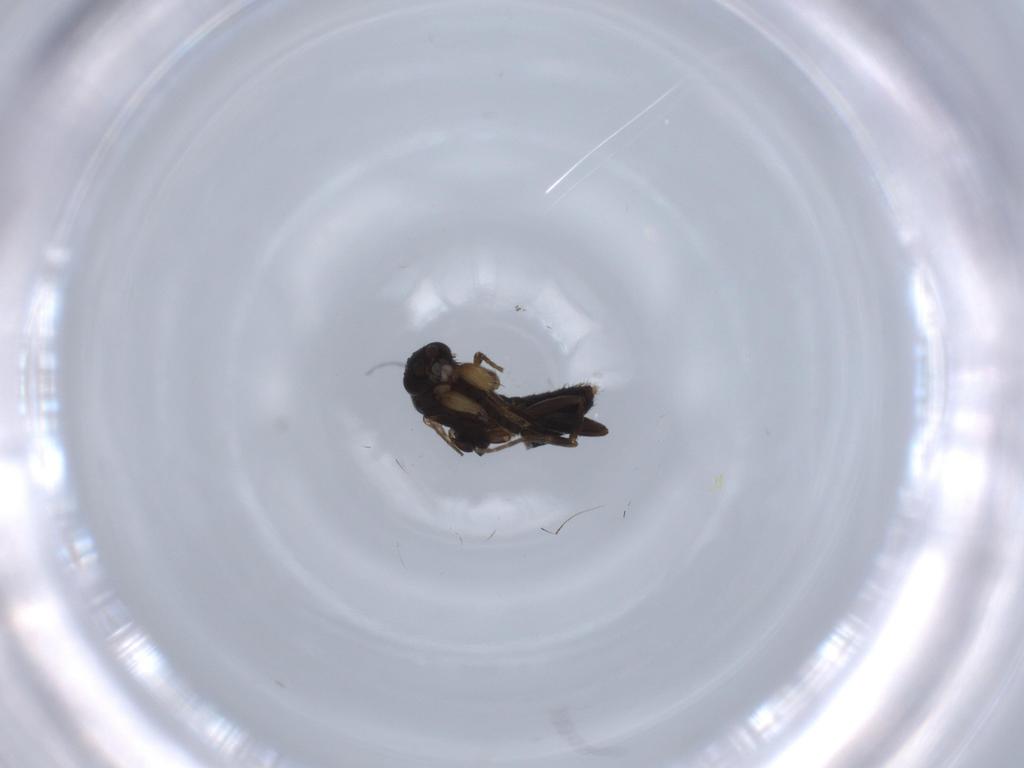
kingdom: Animalia
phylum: Arthropoda
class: Insecta
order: Diptera
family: Phoridae
